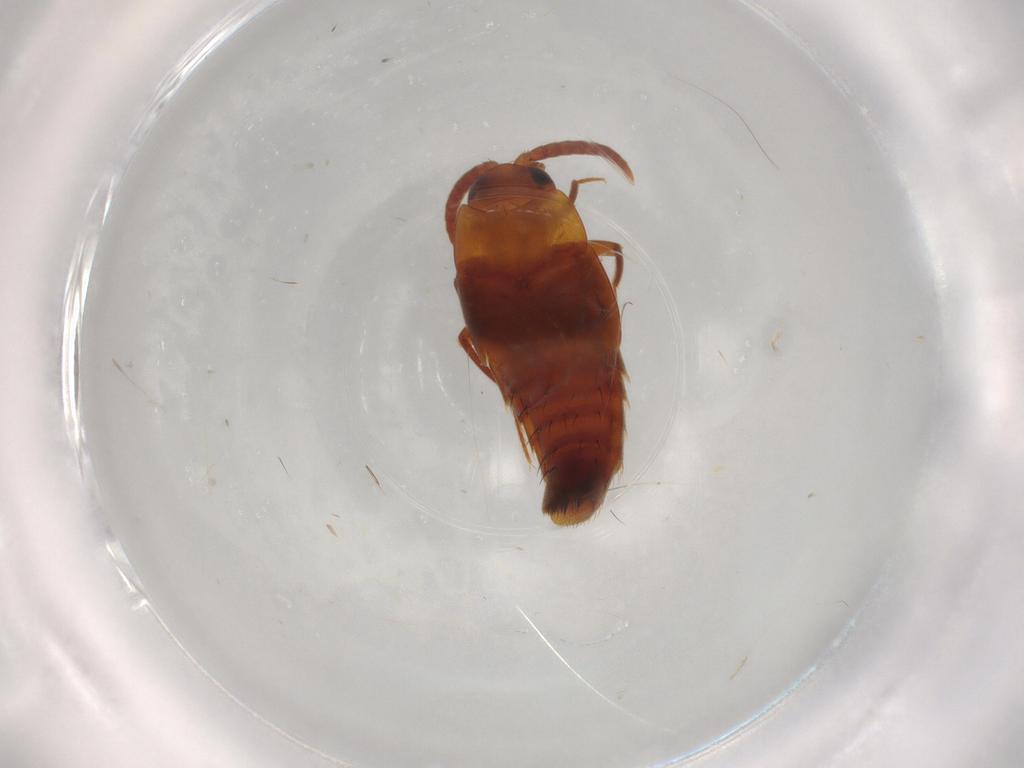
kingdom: Animalia
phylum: Arthropoda
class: Insecta
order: Coleoptera
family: Staphylinidae
